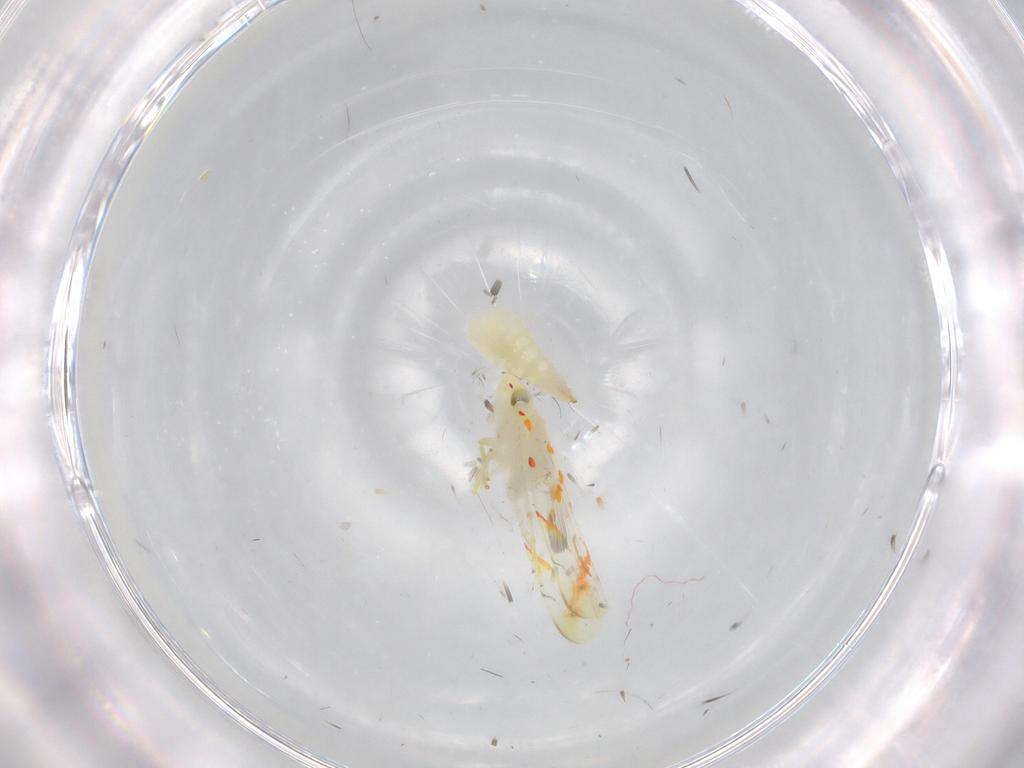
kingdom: Animalia
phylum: Arthropoda
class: Insecta
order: Hemiptera
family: Cicadellidae
